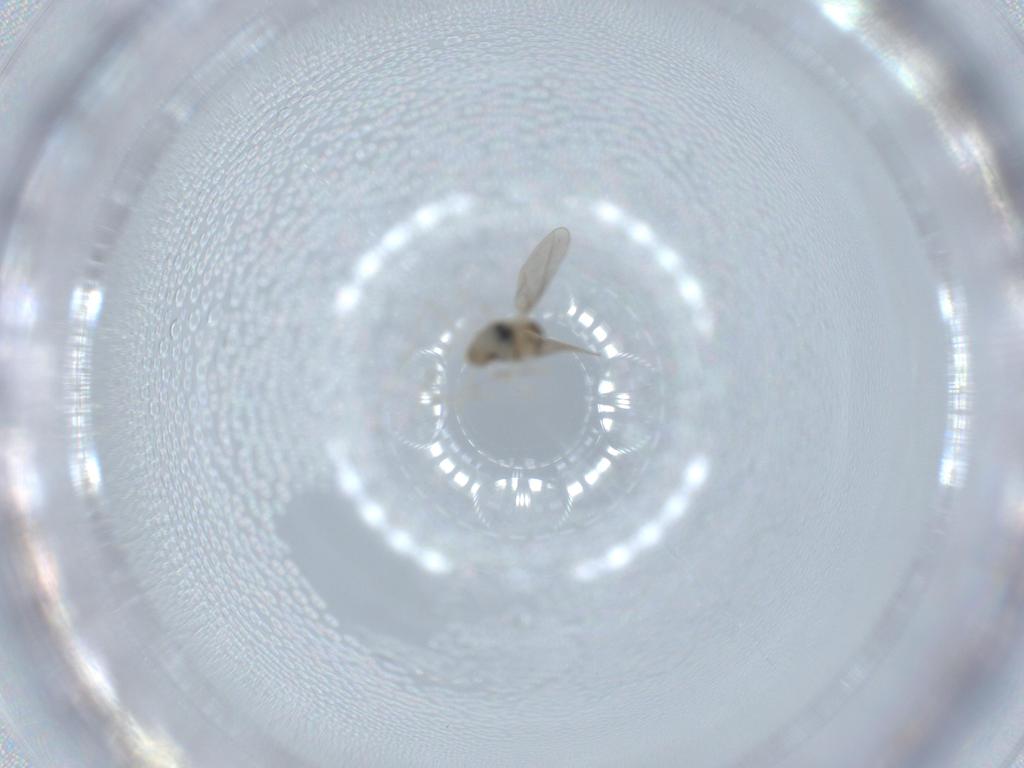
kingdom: Animalia
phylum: Arthropoda
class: Insecta
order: Diptera
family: Cecidomyiidae
